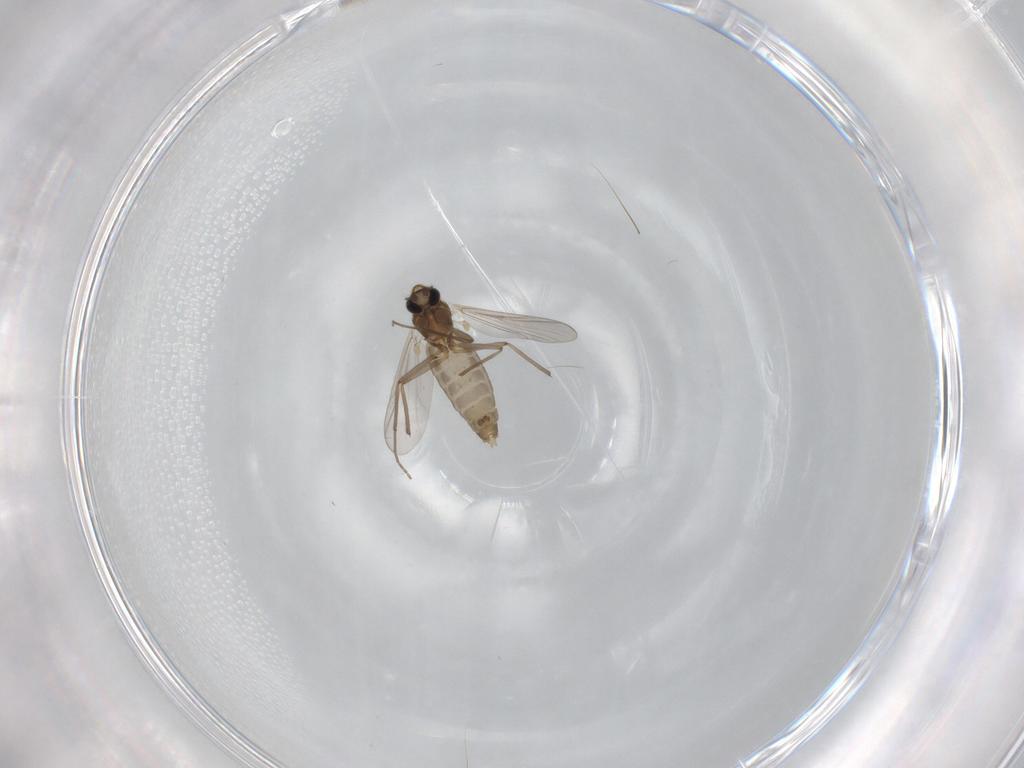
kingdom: Animalia
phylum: Arthropoda
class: Insecta
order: Diptera
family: Chironomidae
